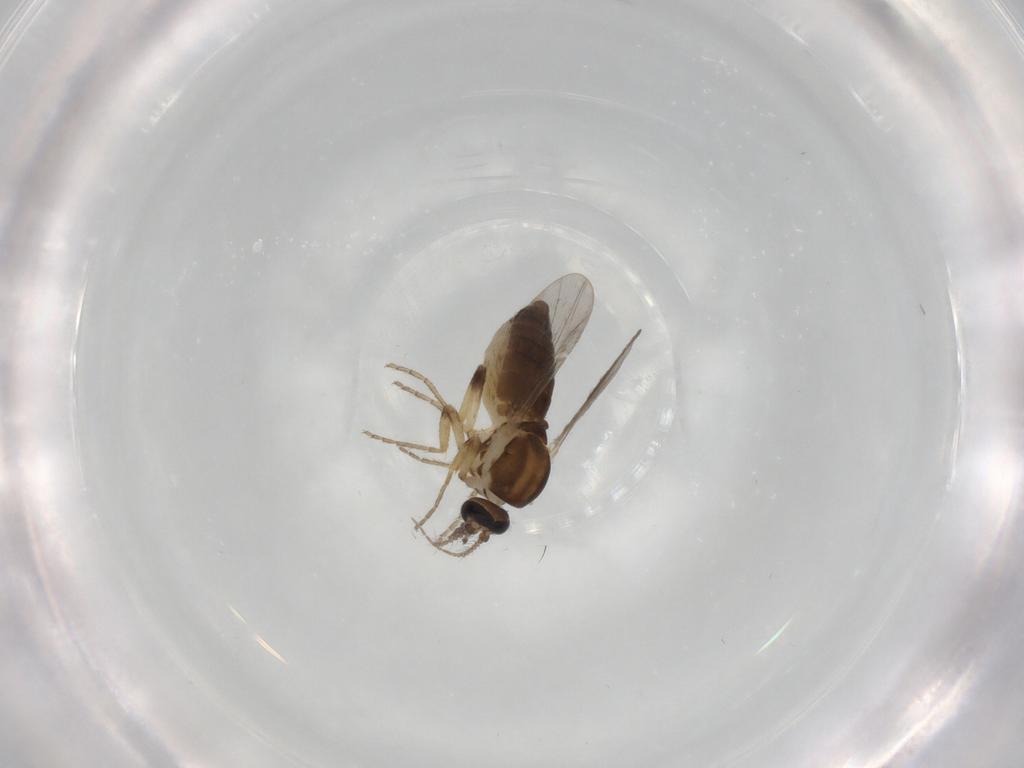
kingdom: Animalia
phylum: Arthropoda
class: Insecta
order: Diptera
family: Ceratopogonidae
